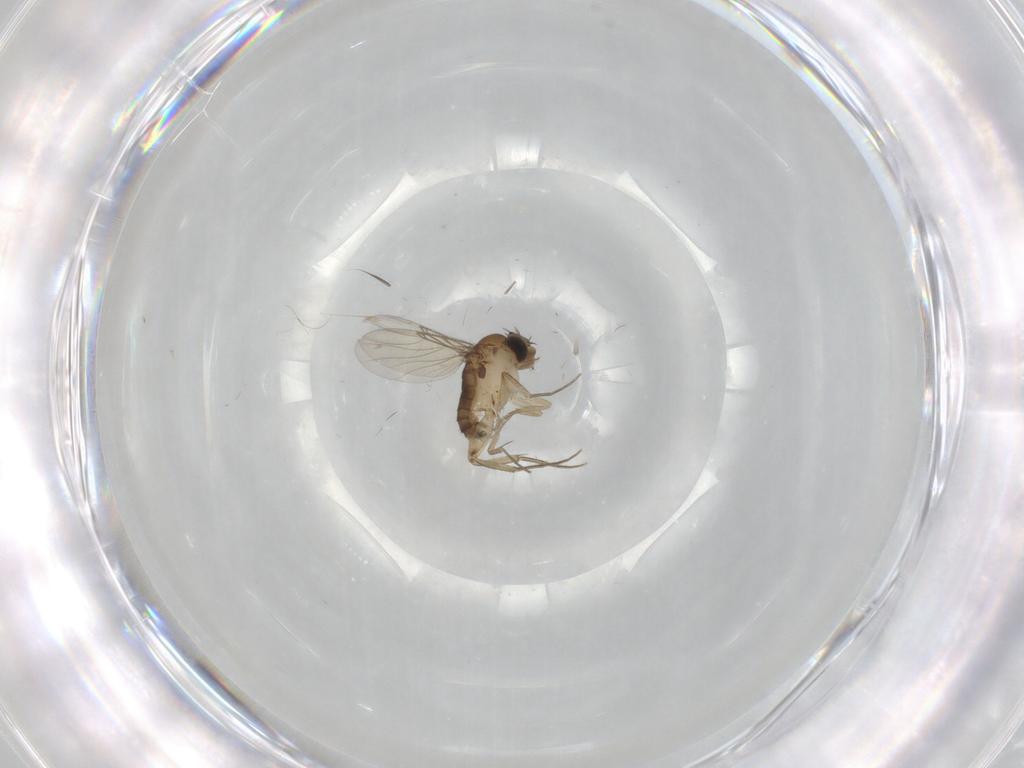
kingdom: Animalia
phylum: Arthropoda
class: Insecta
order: Diptera
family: Phoridae
